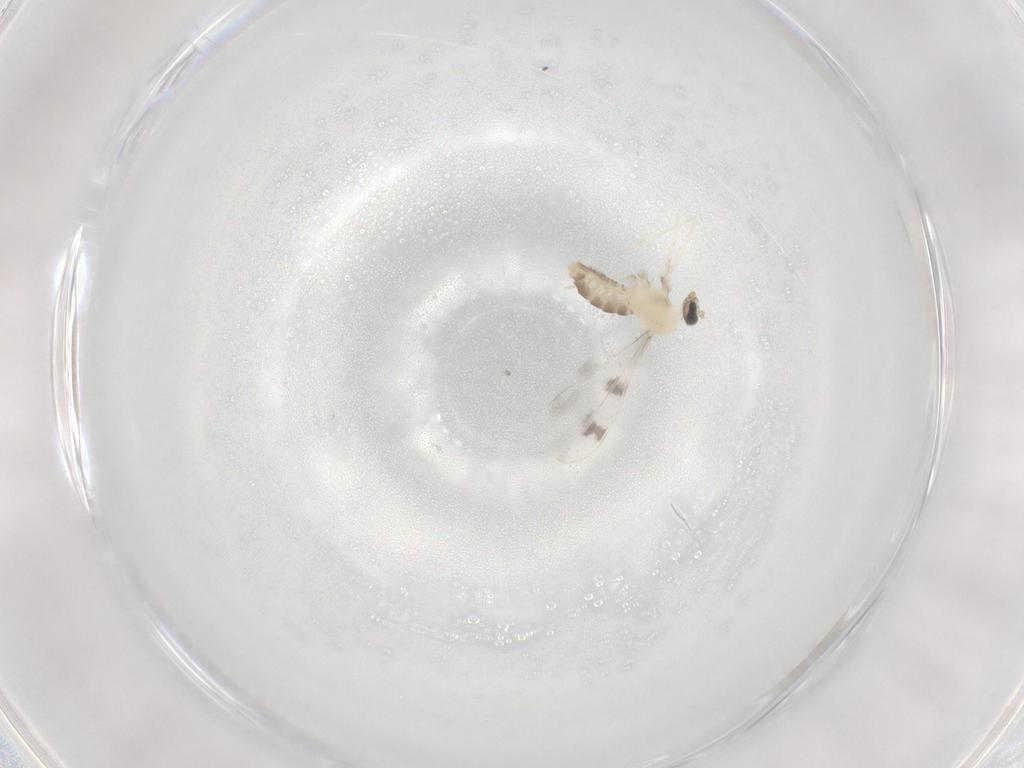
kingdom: Animalia
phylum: Arthropoda
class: Insecta
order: Diptera
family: Cecidomyiidae
